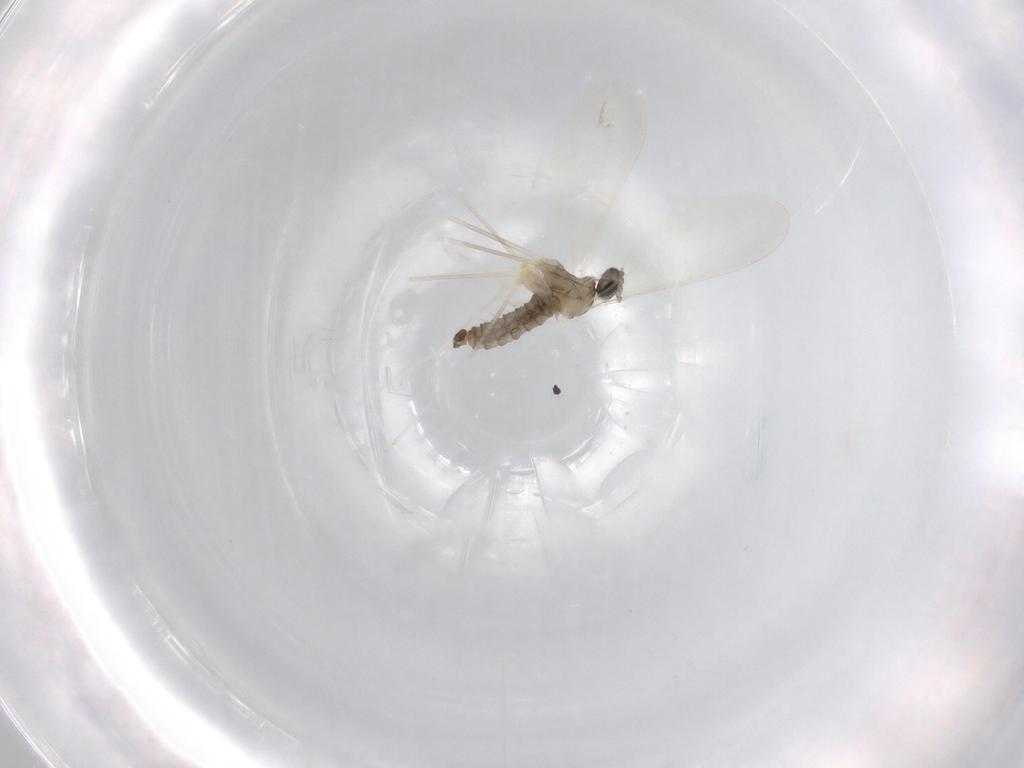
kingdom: Animalia
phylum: Arthropoda
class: Insecta
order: Diptera
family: Cecidomyiidae
